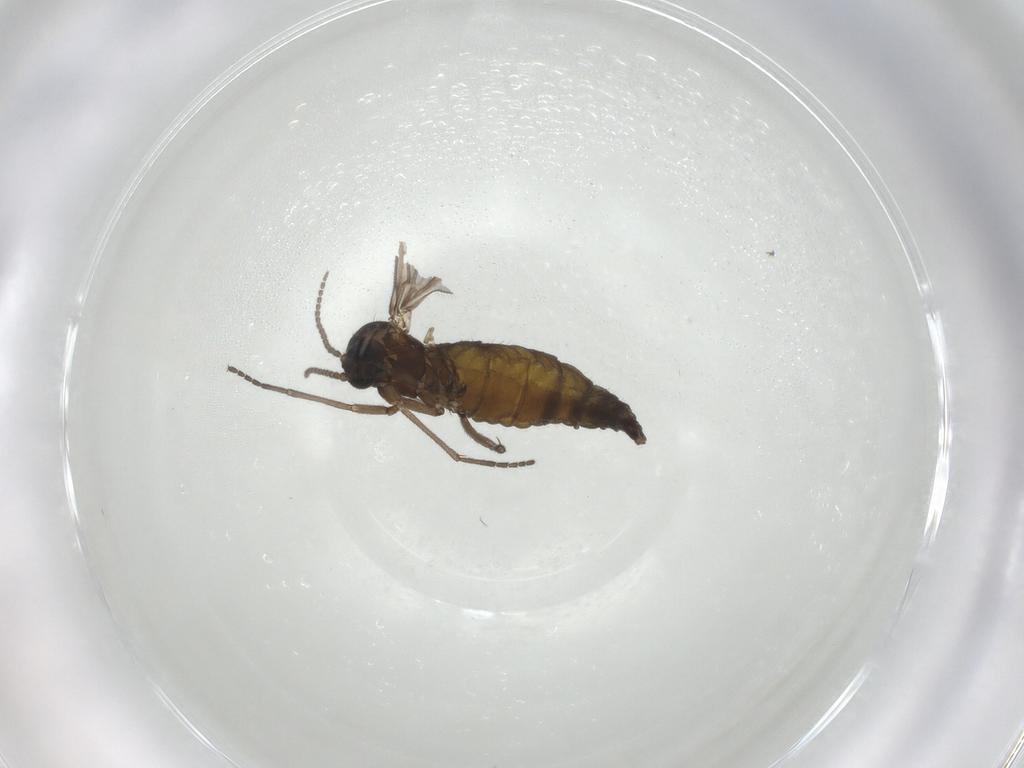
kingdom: Animalia
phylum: Arthropoda
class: Insecta
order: Diptera
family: Sciaridae
